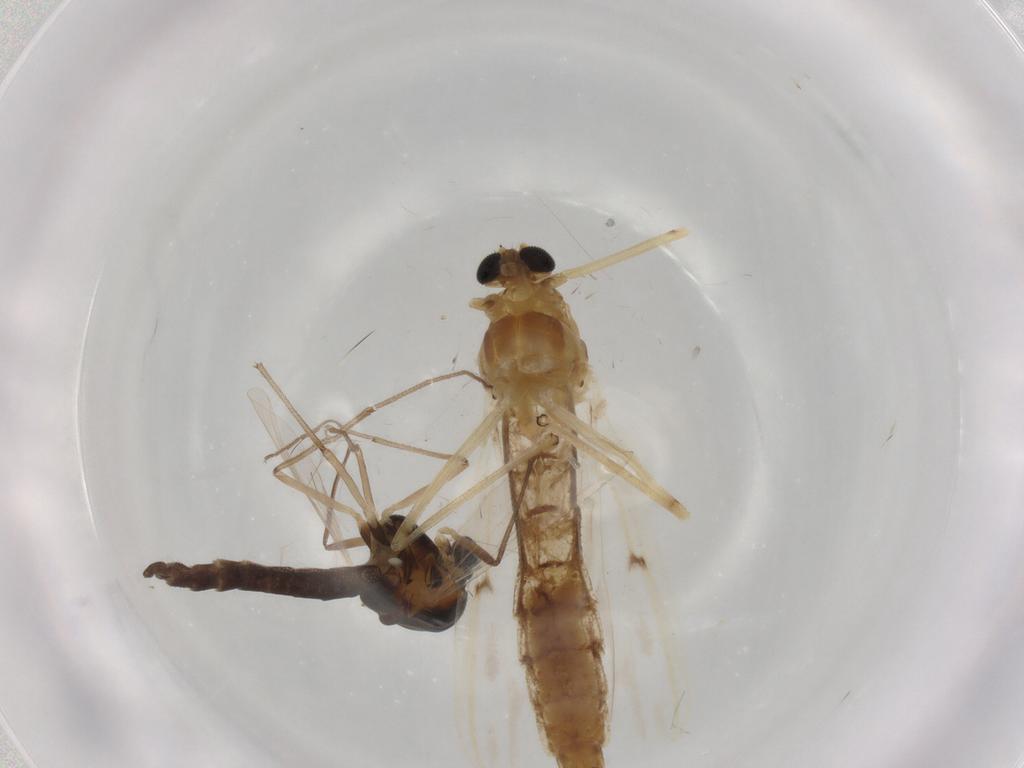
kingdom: Animalia
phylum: Arthropoda
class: Insecta
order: Diptera
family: Chironomidae
